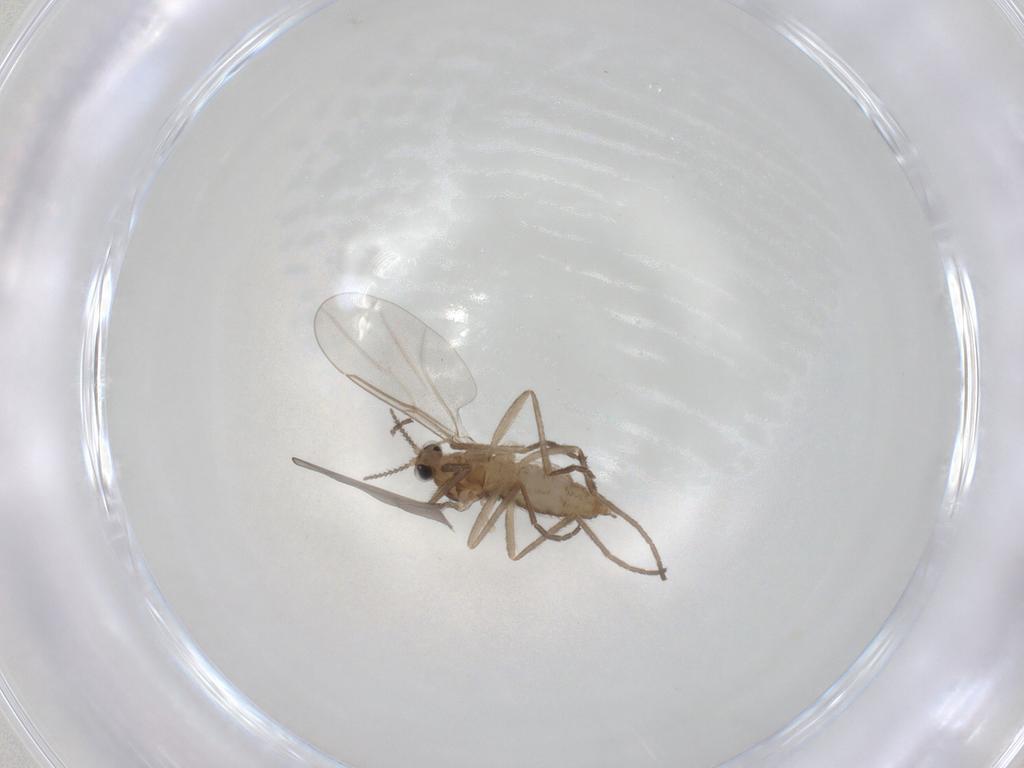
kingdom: Animalia
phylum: Arthropoda
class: Insecta
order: Diptera
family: Cecidomyiidae
